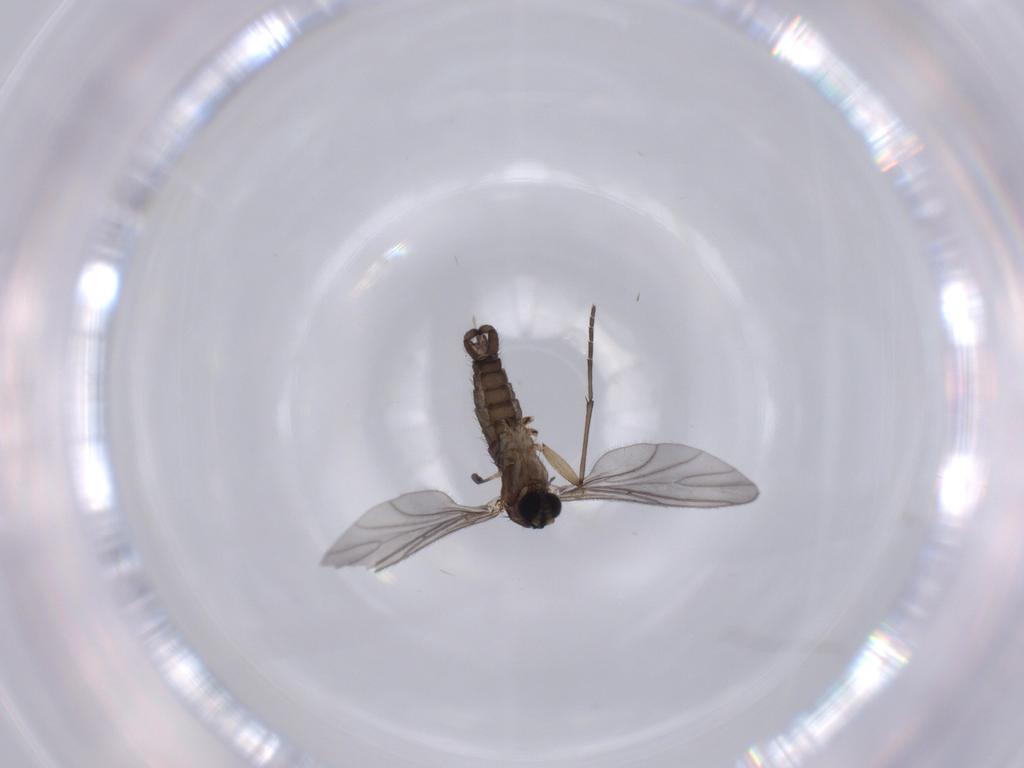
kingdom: Animalia
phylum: Arthropoda
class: Insecta
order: Diptera
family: Sciaridae
